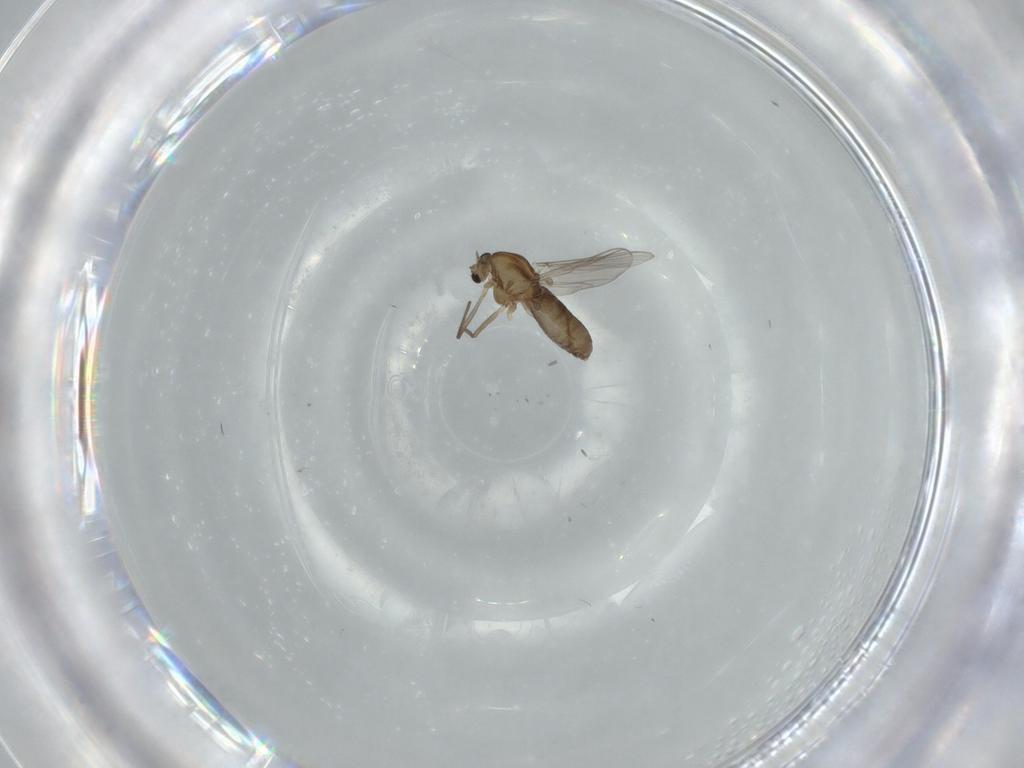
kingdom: Animalia
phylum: Arthropoda
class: Insecta
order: Diptera
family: Chironomidae
